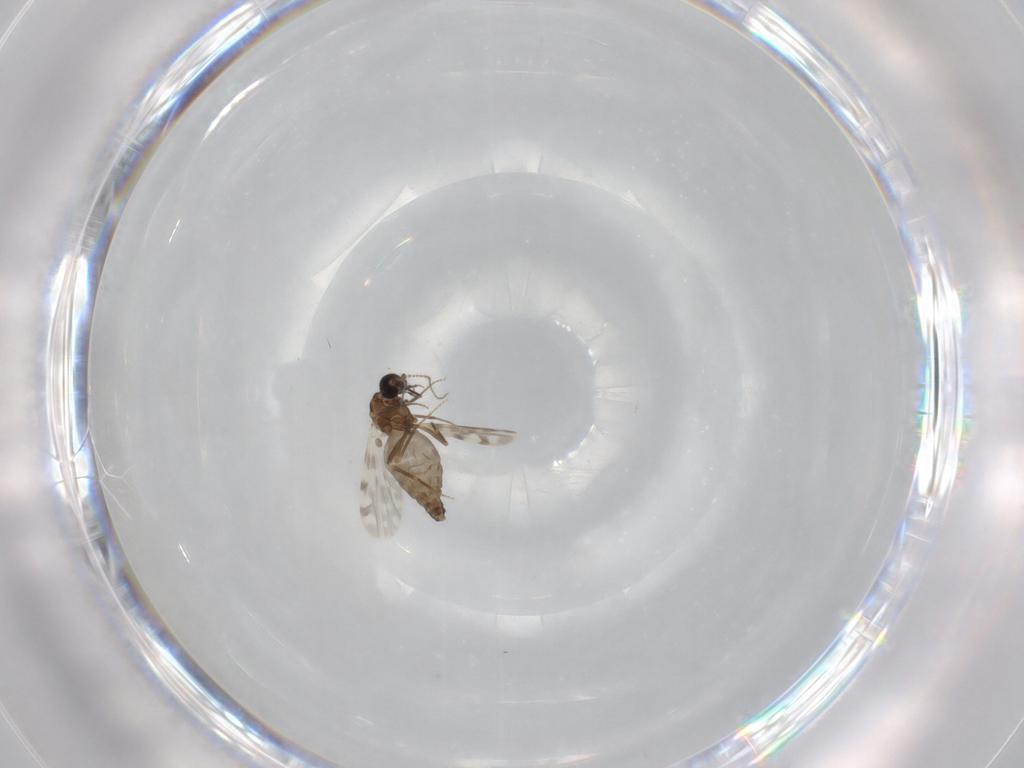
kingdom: Animalia
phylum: Arthropoda
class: Insecta
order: Diptera
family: Ceratopogonidae
